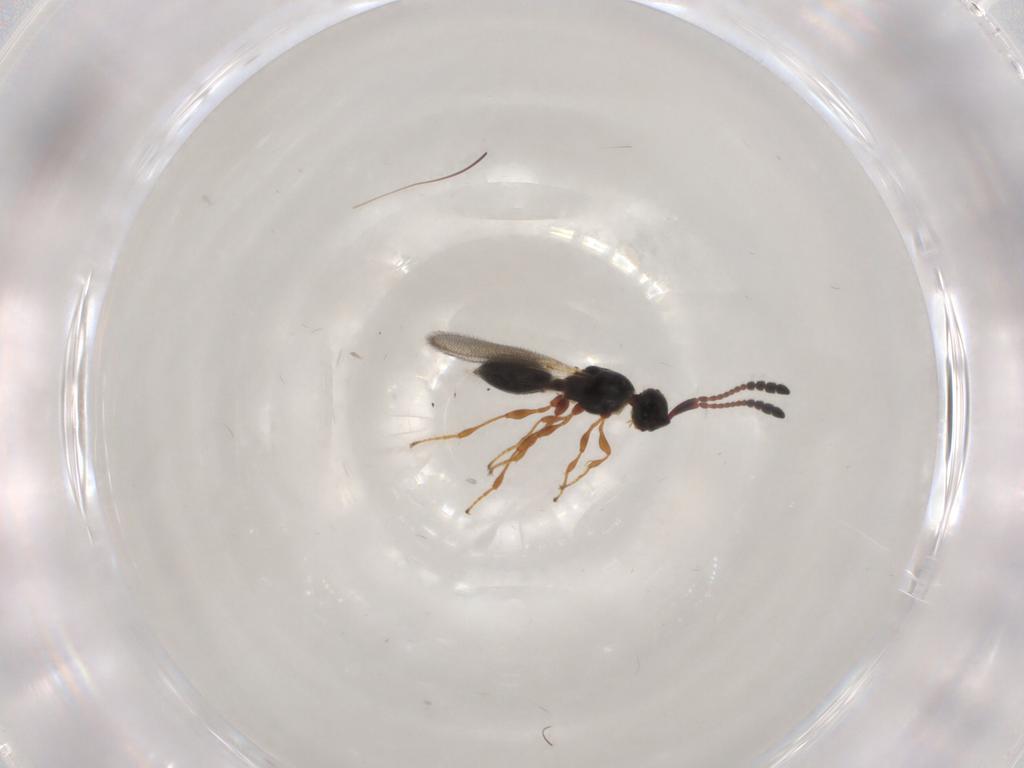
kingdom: Animalia
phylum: Arthropoda
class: Insecta
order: Hymenoptera
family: Diapriidae
